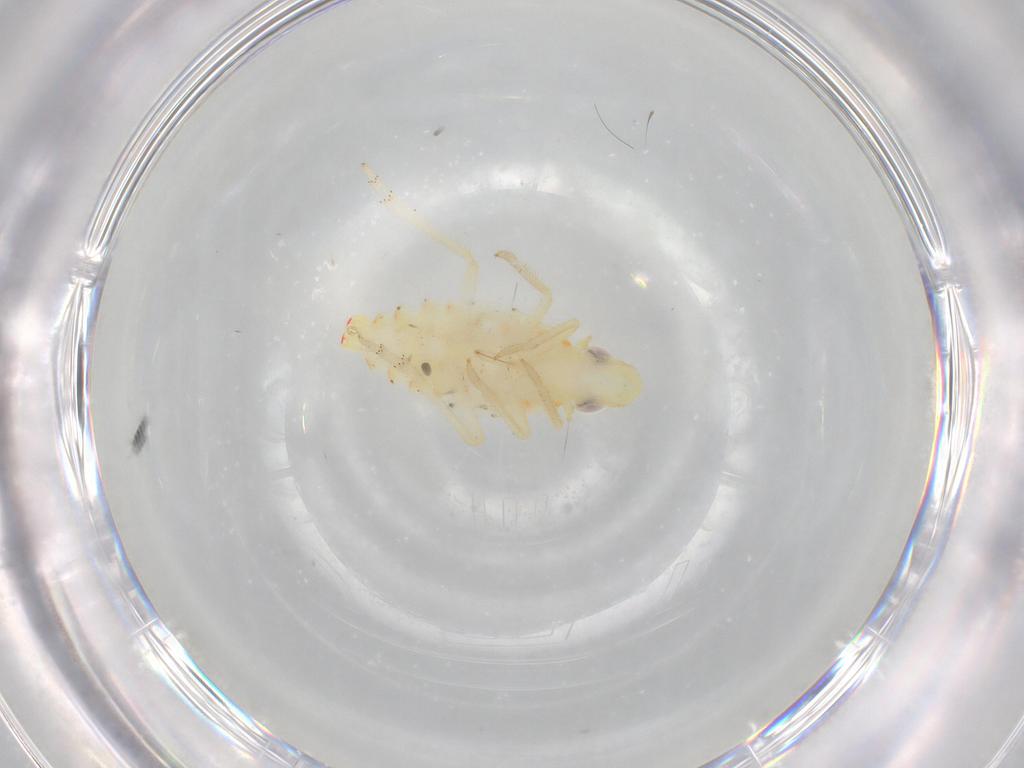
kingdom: Animalia
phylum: Arthropoda
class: Insecta
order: Hemiptera
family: Tropiduchidae
